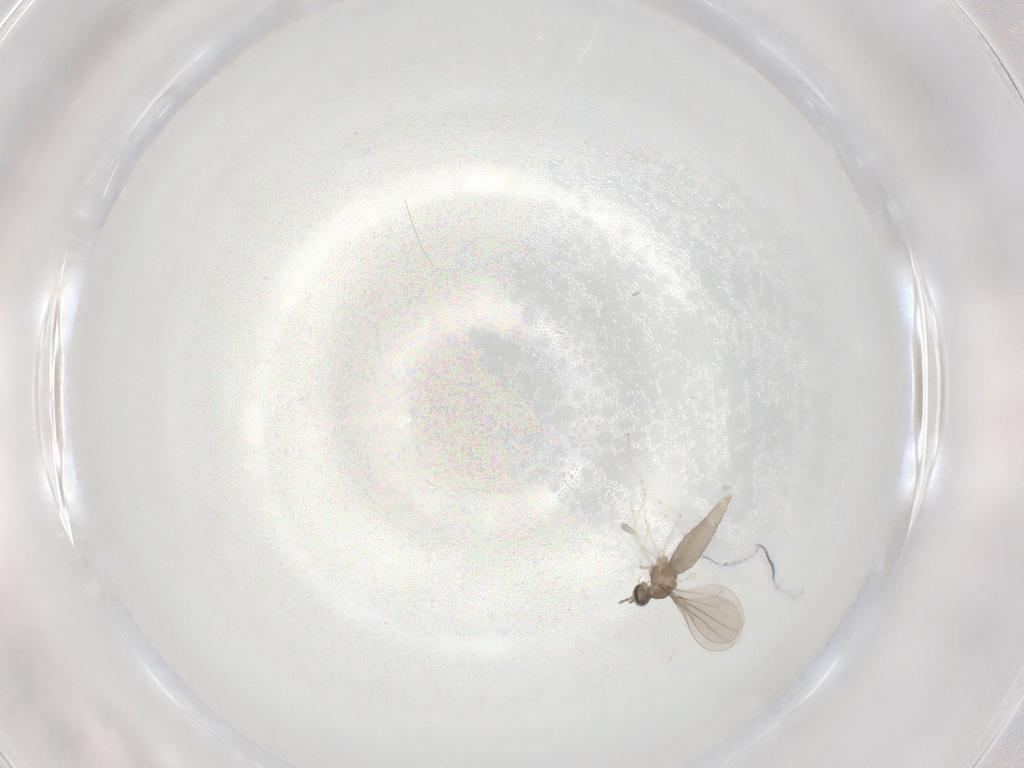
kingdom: Animalia
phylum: Arthropoda
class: Insecta
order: Diptera
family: Cecidomyiidae
